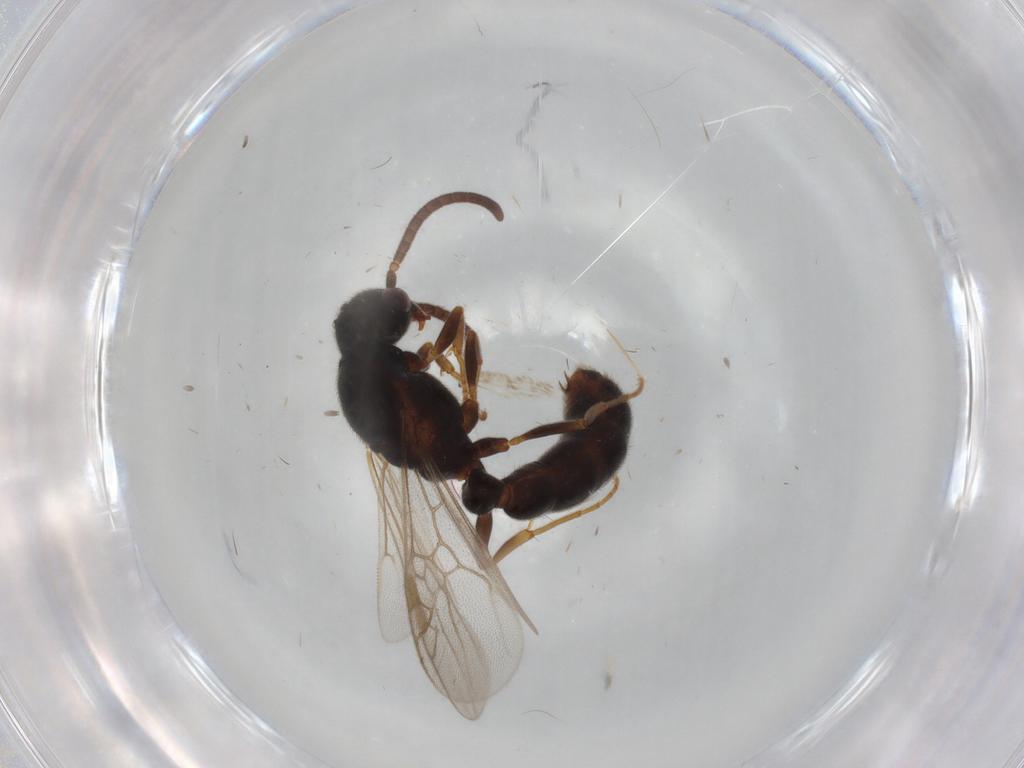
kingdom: Animalia
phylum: Arthropoda
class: Insecta
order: Hymenoptera
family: Formicidae
